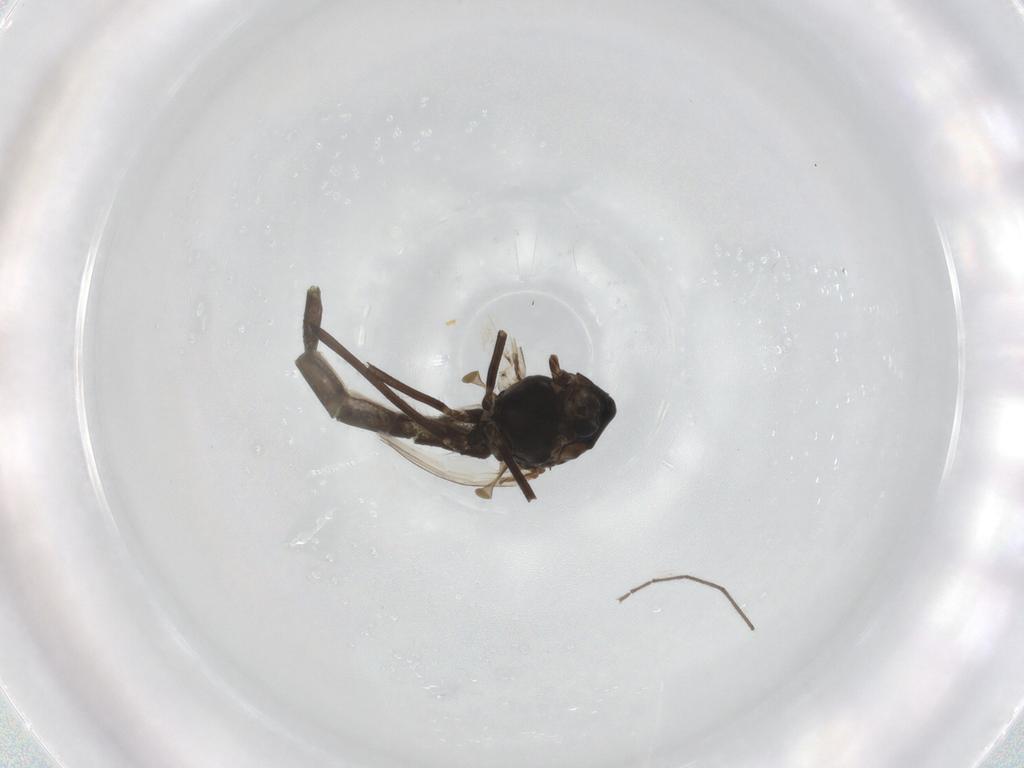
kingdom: Animalia
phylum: Arthropoda
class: Insecta
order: Diptera
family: Chironomidae
